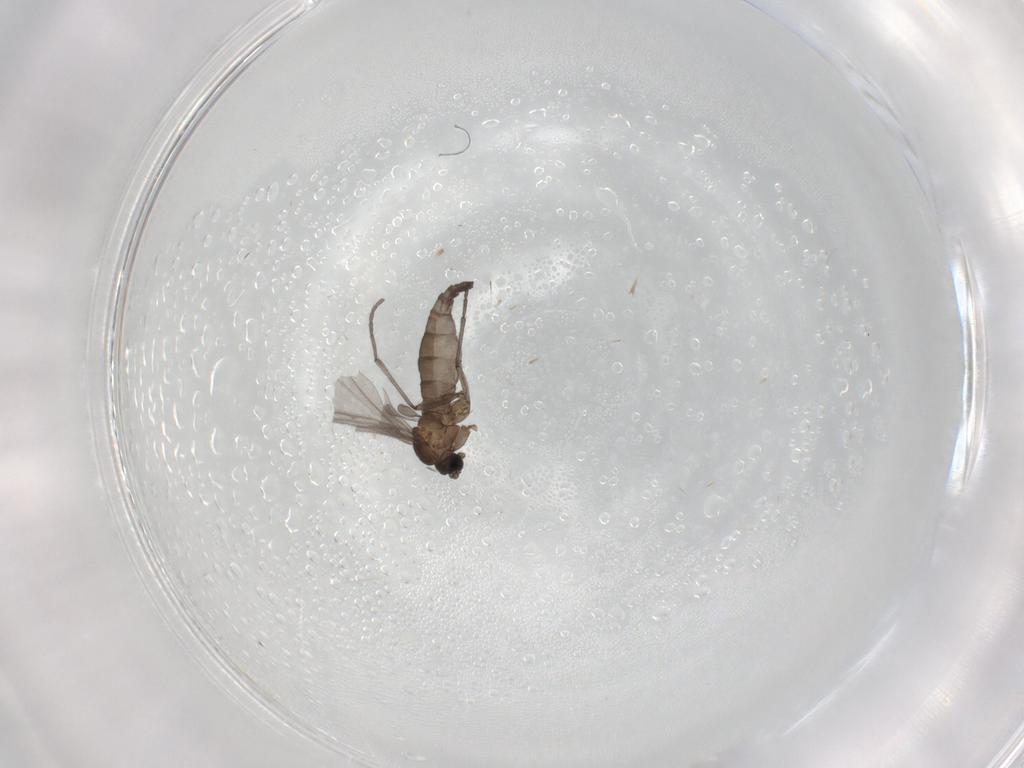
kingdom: Animalia
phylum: Arthropoda
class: Insecta
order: Diptera
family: Sciaridae
